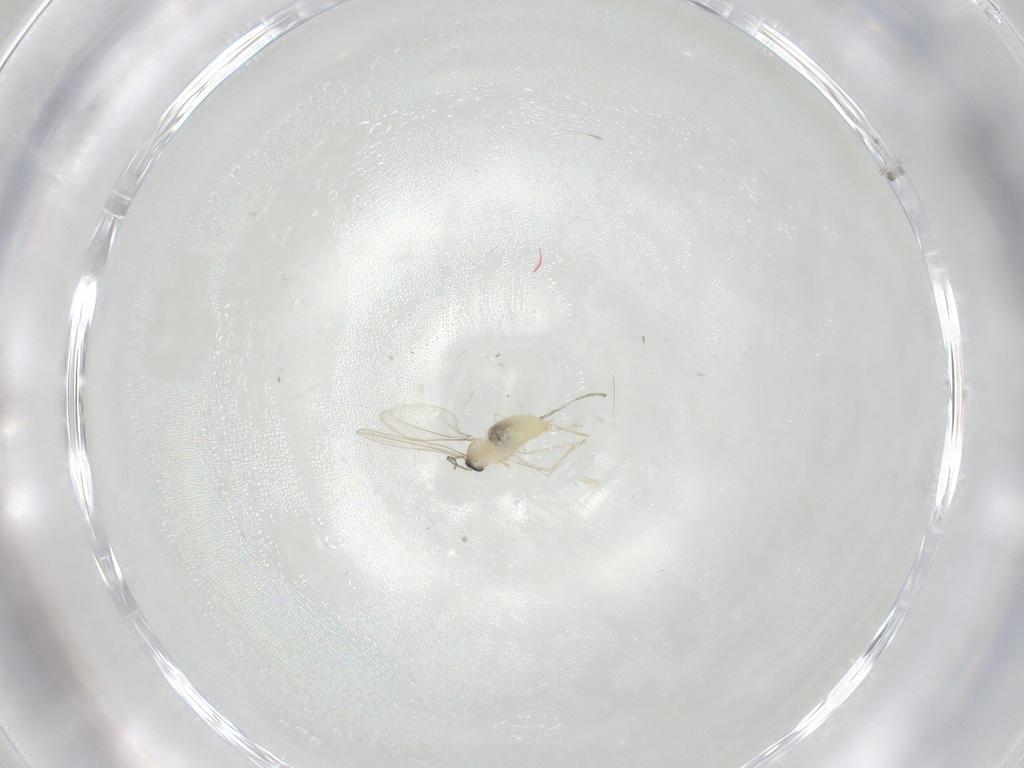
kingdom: Animalia
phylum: Arthropoda
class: Insecta
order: Diptera
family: Chironomidae
